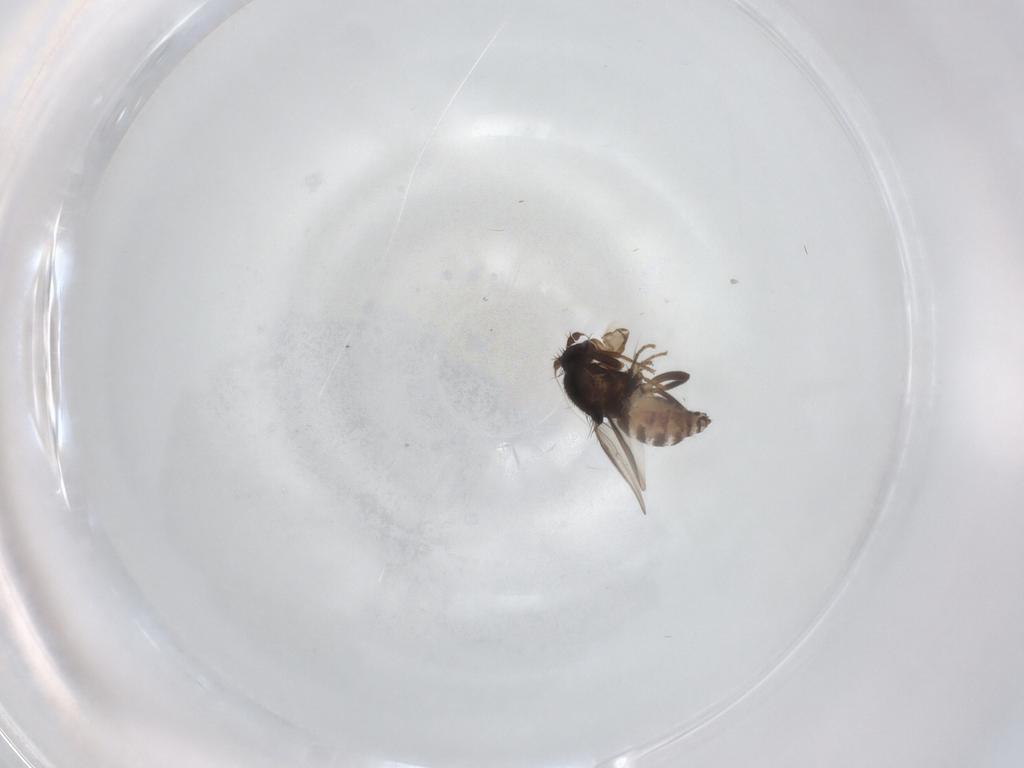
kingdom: Animalia
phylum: Arthropoda
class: Insecta
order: Diptera
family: Sphaeroceridae
